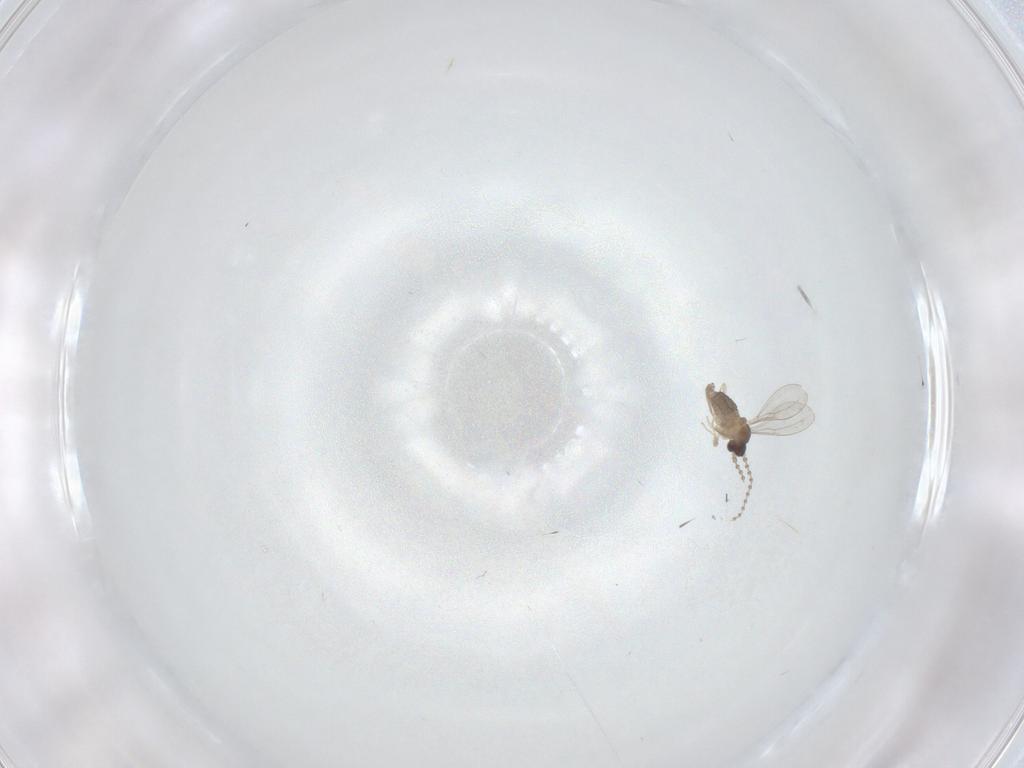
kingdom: Animalia
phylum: Arthropoda
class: Insecta
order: Diptera
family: Cecidomyiidae
